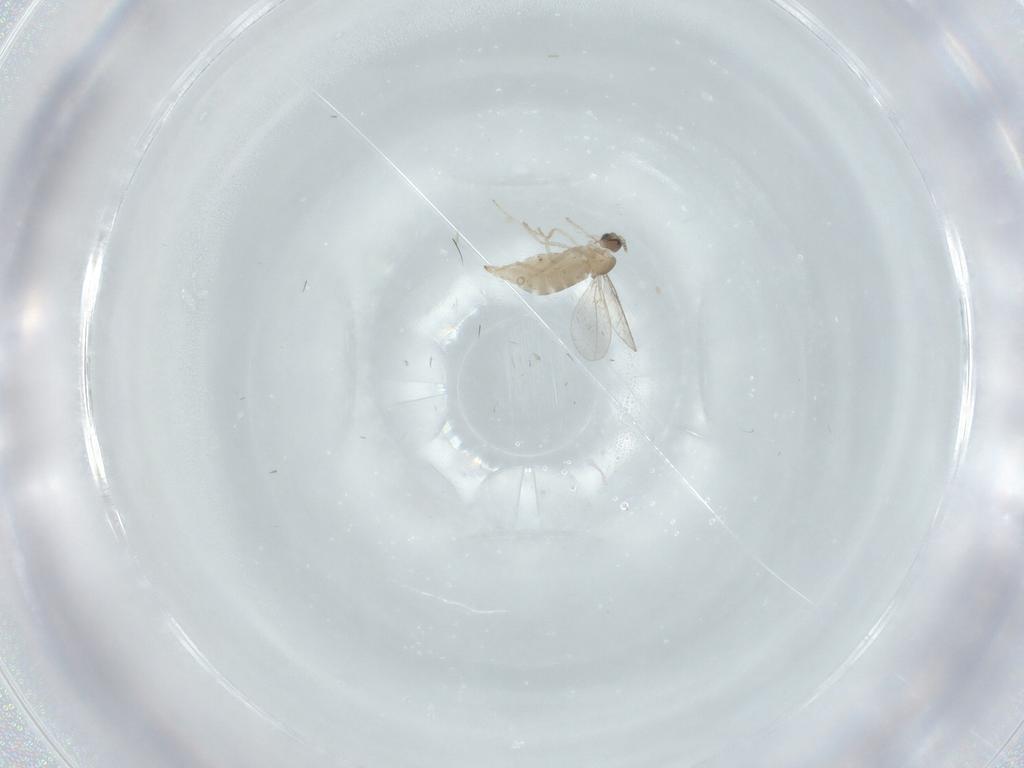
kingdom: Animalia
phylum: Arthropoda
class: Insecta
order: Diptera
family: Cecidomyiidae
